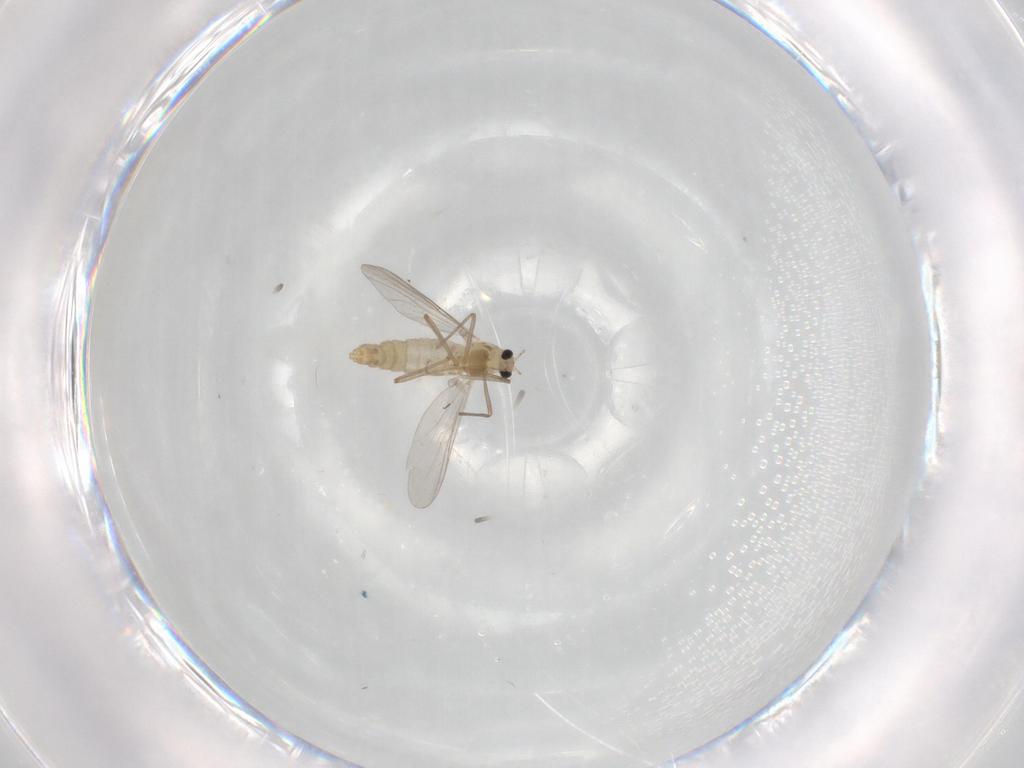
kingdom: Animalia
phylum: Arthropoda
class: Insecta
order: Diptera
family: Chironomidae
